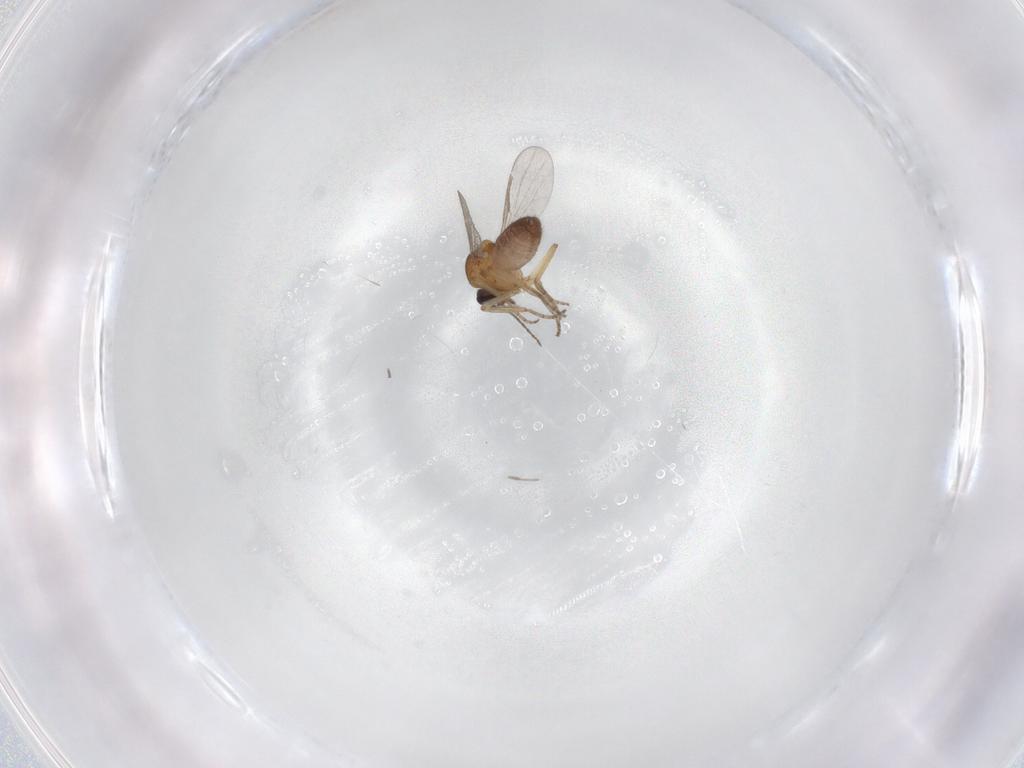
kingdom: Animalia
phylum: Arthropoda
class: Insecta
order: Diptera
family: Chironomidae
